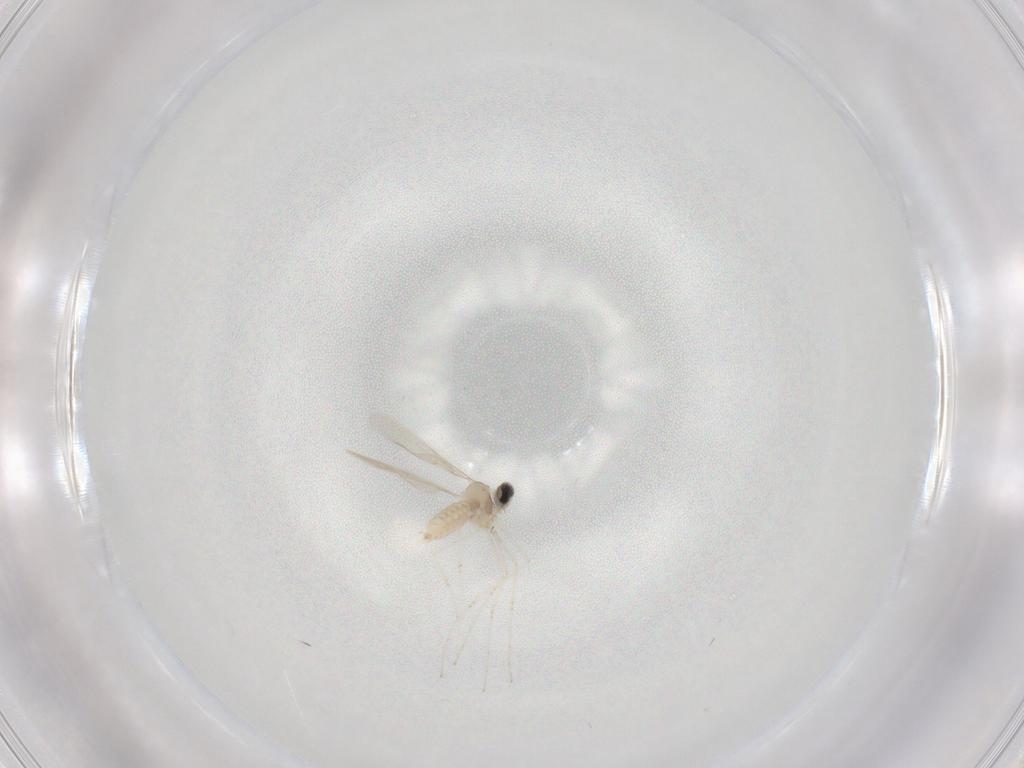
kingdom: Animalia
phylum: Arthropoda
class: Insecta
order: Diptera
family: Cecidomyiidae
